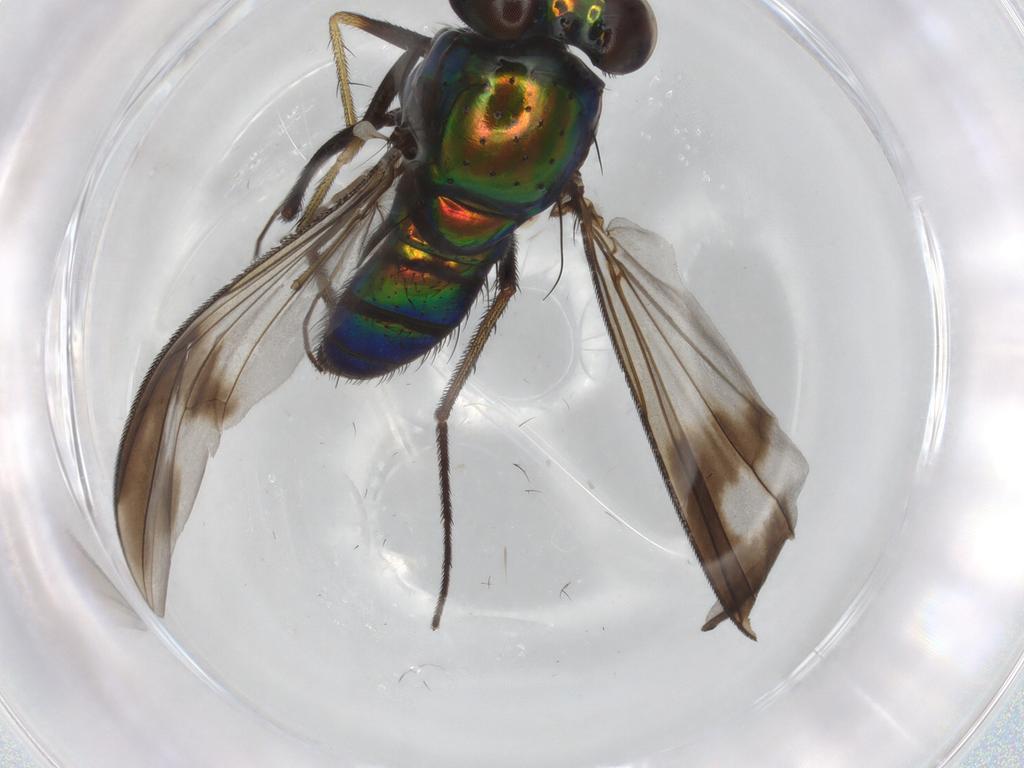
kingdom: Animalia
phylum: Arthropoda
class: Insecta
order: Diptera
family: Dolichopodidae
